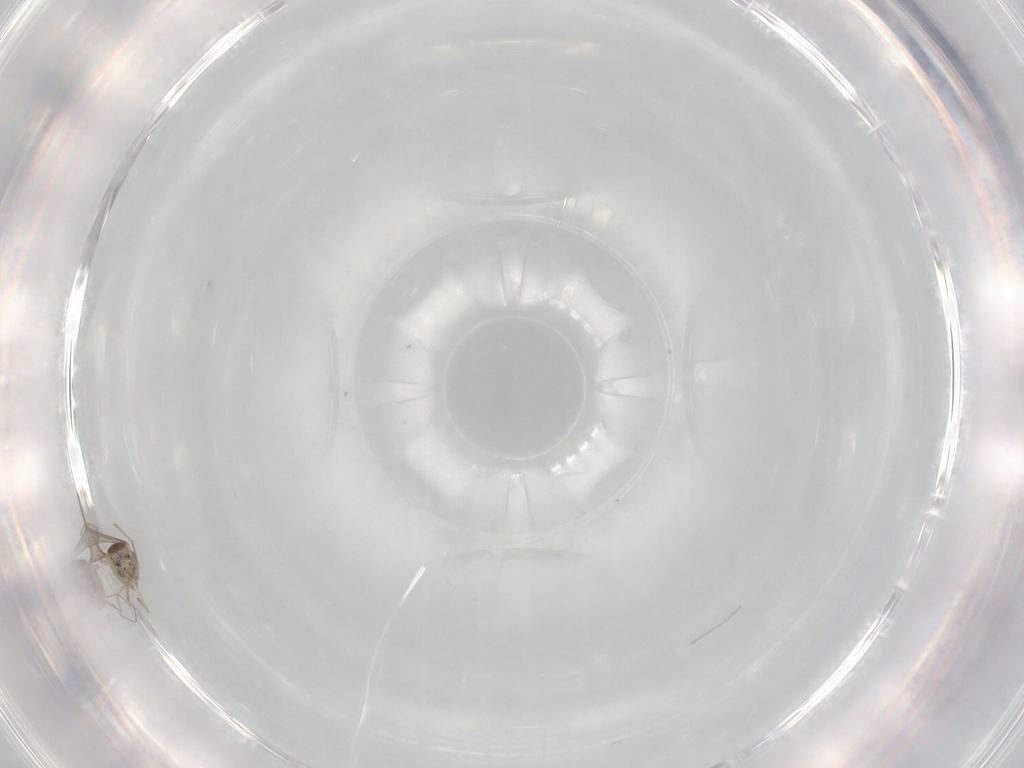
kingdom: Animalia
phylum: Arthropoda
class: Insecta
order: Diptera
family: Cecidomyiidae
